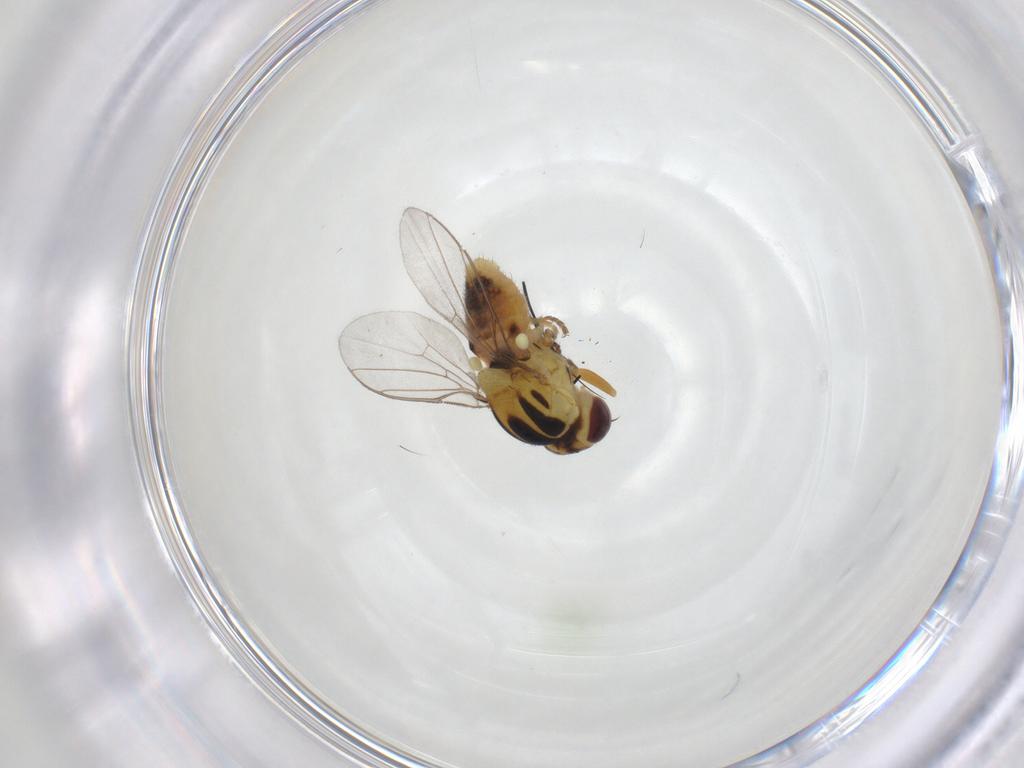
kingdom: Animalia
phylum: Arthropoda
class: Insecta
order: Diptera
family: Chloropidae
